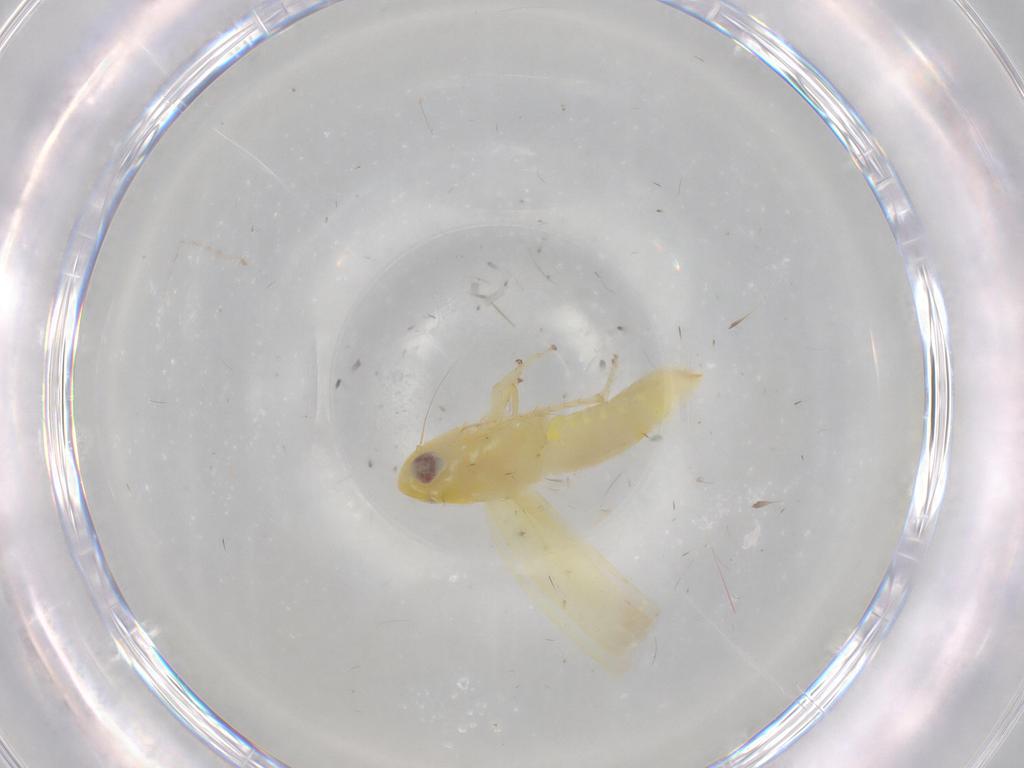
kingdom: Animalia
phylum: Arthropoda
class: Insecta
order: Hemiptera
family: Cicadellidae
